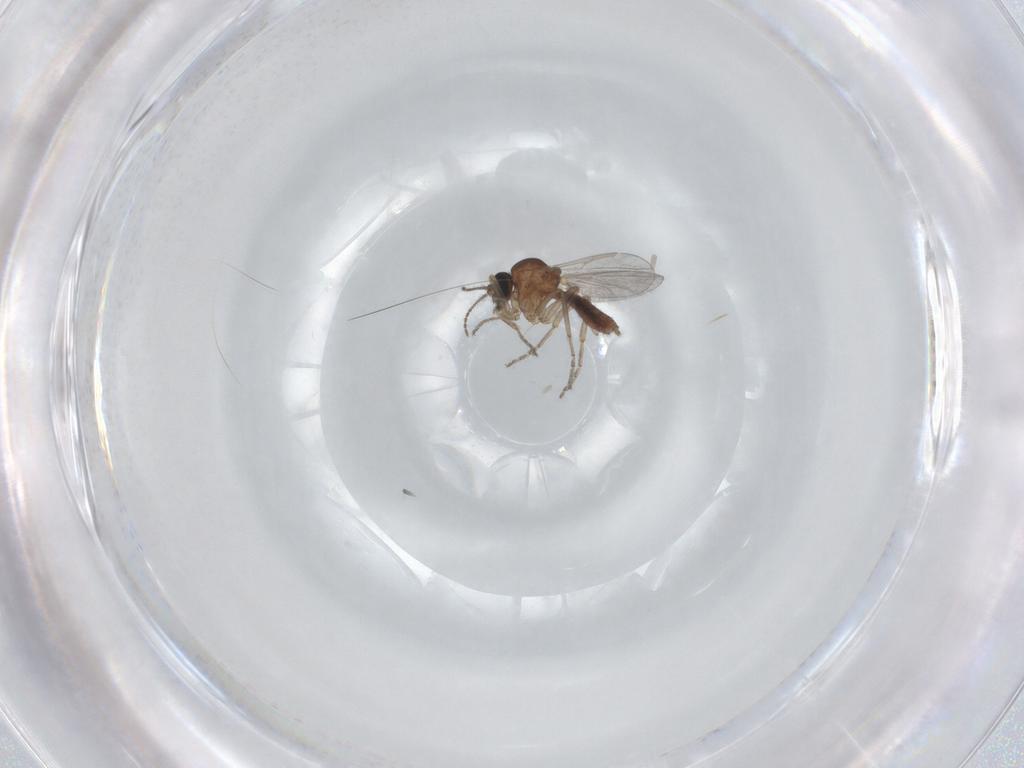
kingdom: Animalia
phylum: Arthropoda
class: Insecta
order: Diptera
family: Ceratopogonidae
